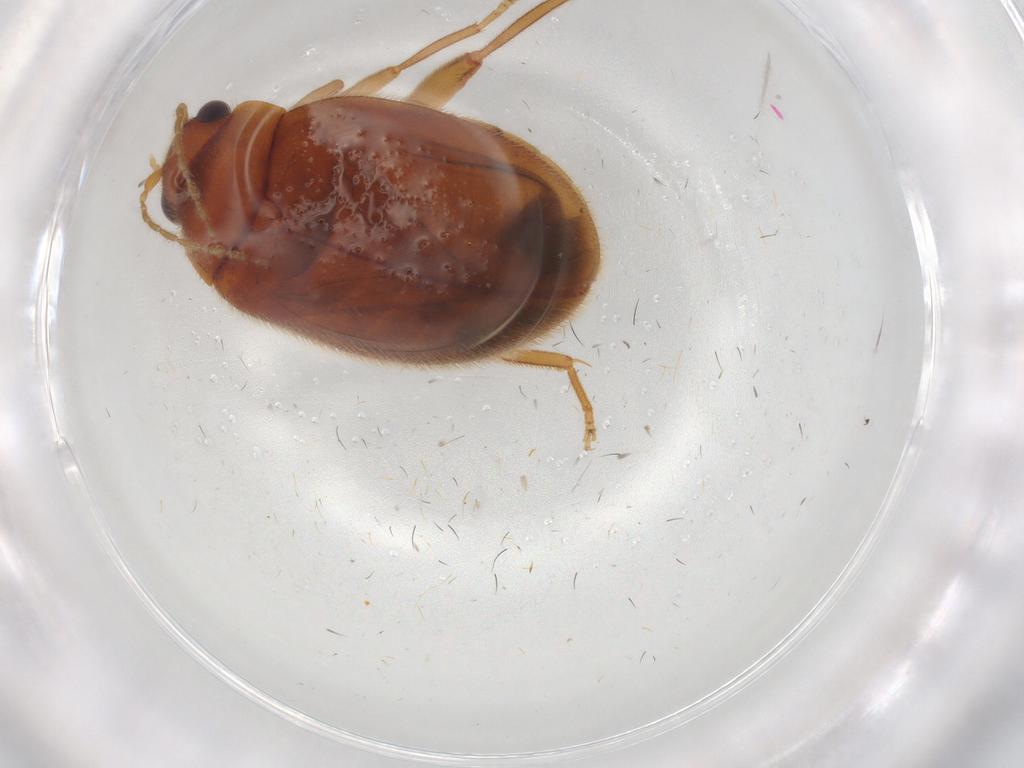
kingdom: Animalia
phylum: Arthropoda
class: Insecta
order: Coleoptera
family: Scirtidae
